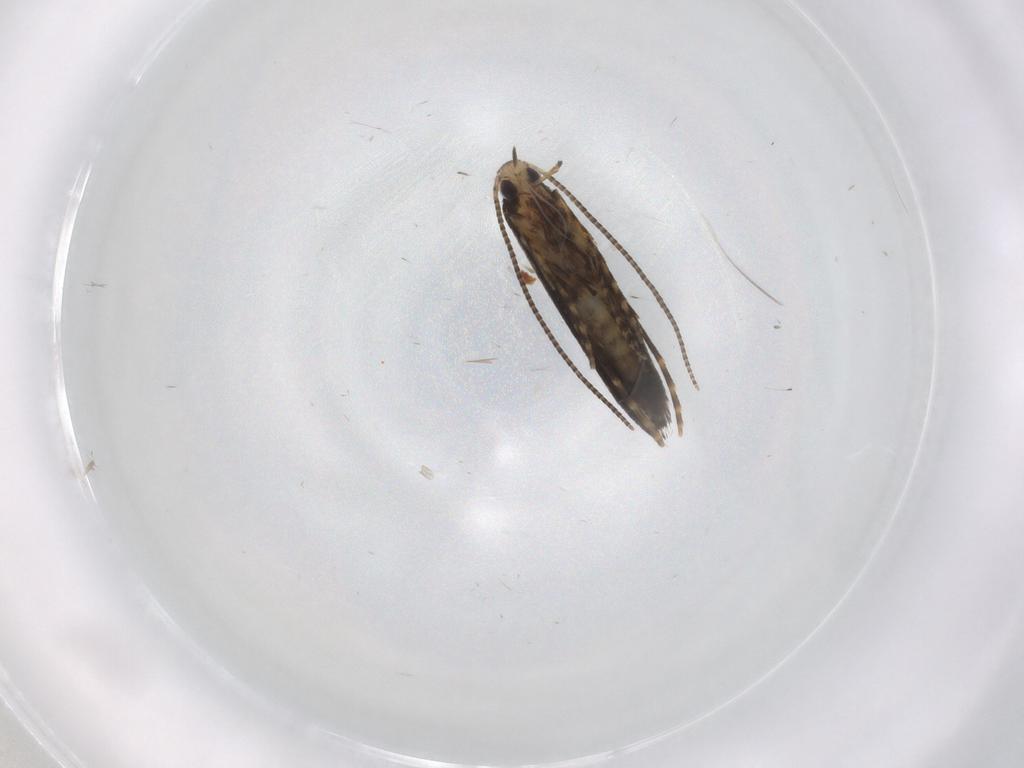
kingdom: Animalia
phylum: Arthropoda
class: Insecta
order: Lepidoptera
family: Gracillariidae
